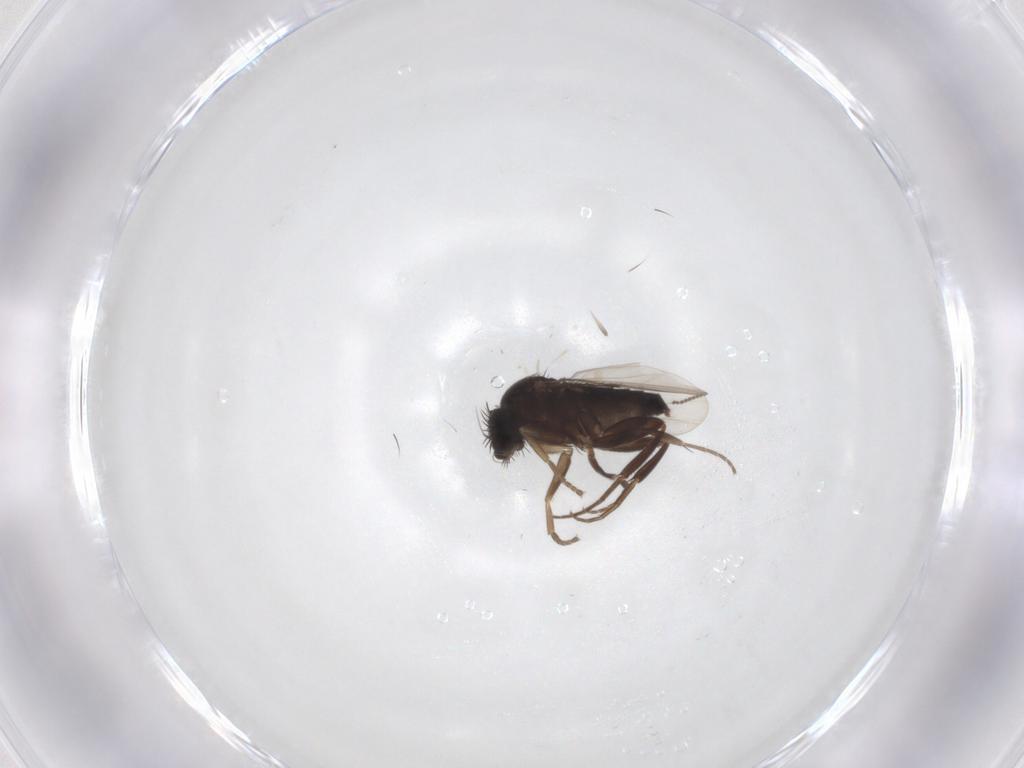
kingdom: Animalia
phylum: Arthropoda
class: Insecta
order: Diptera
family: Phoridae
